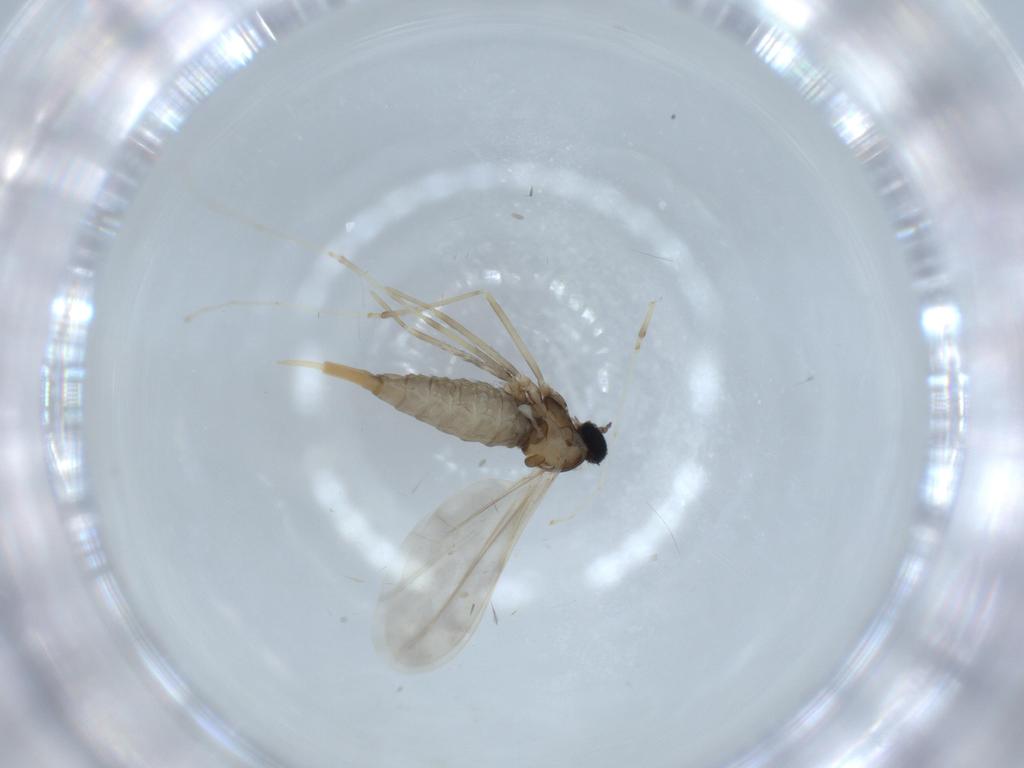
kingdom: Animalia
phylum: Arthropoda
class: Insecta
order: Diptera
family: Cecidomyiidae
